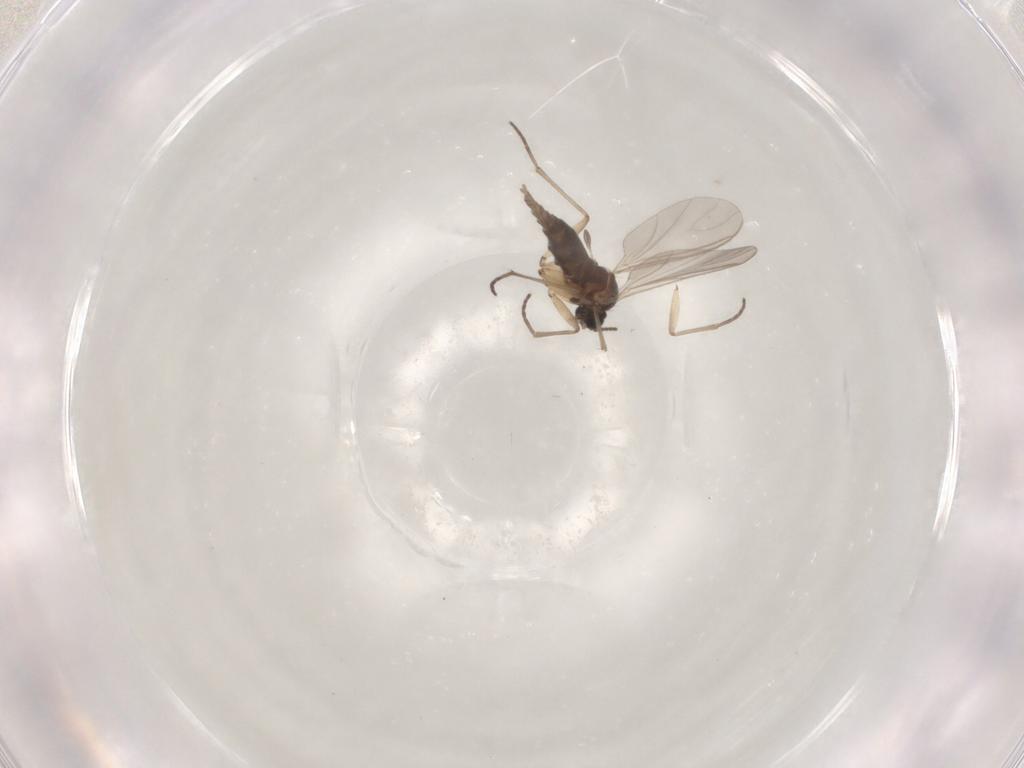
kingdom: Animalia
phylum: Arthropoda
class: Insecta
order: Diptera
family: Sciaridae
